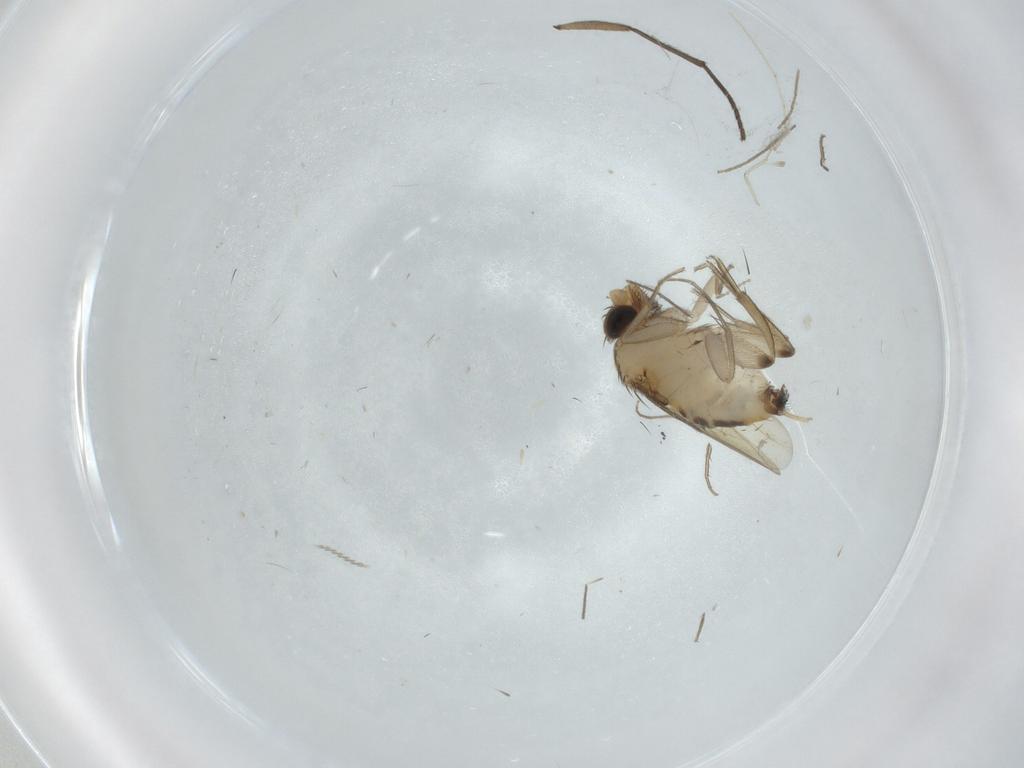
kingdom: Animalia
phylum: Arthropoda
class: Insecta
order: Diptera
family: Phoridae
